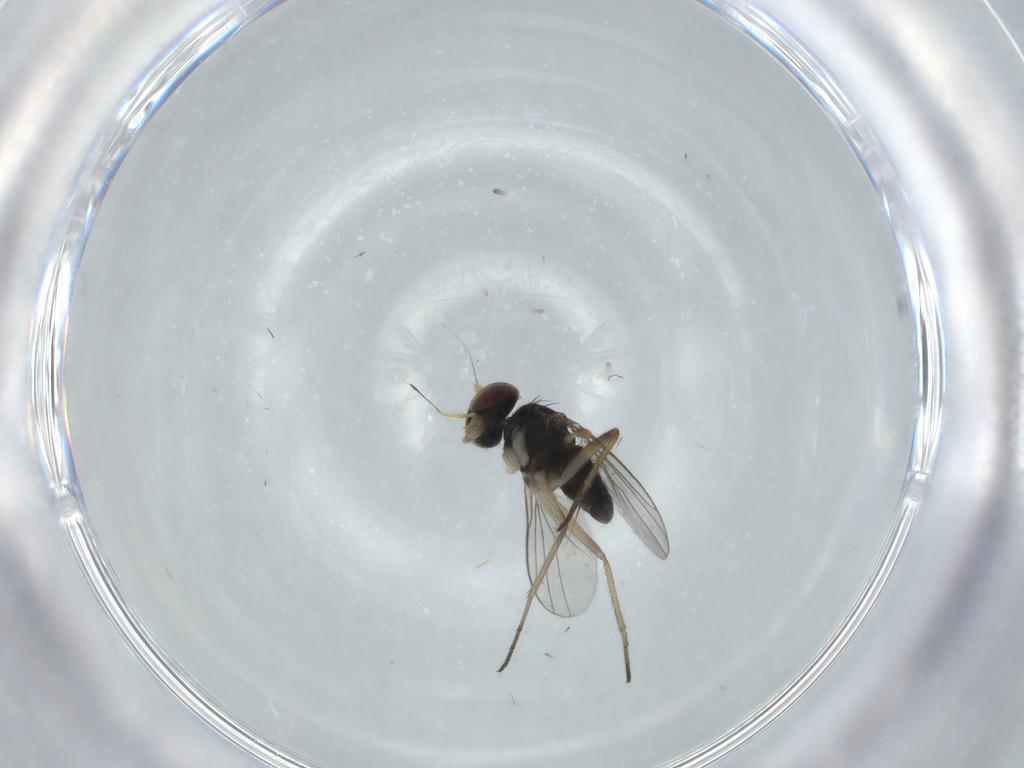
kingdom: Animalia
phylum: Arthropoda
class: Insecta
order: Diptera
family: Dolichopodidae
